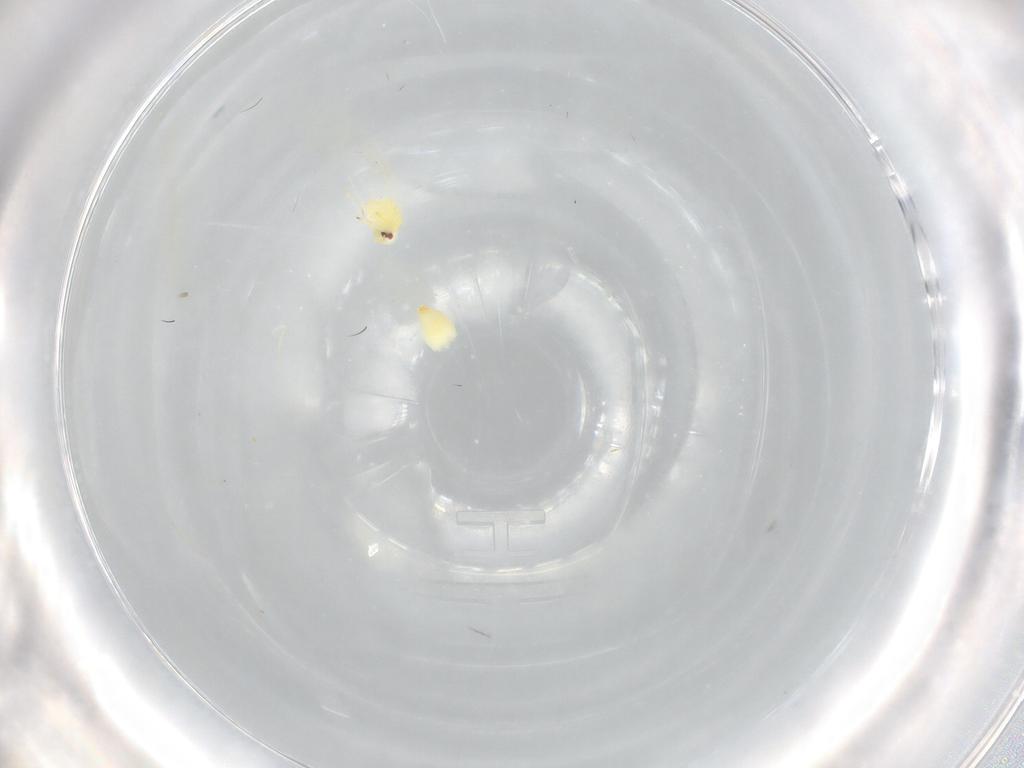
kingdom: Animalia
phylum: Arthropoda
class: Insecta
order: Hemiptera
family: Aleyrodidae
